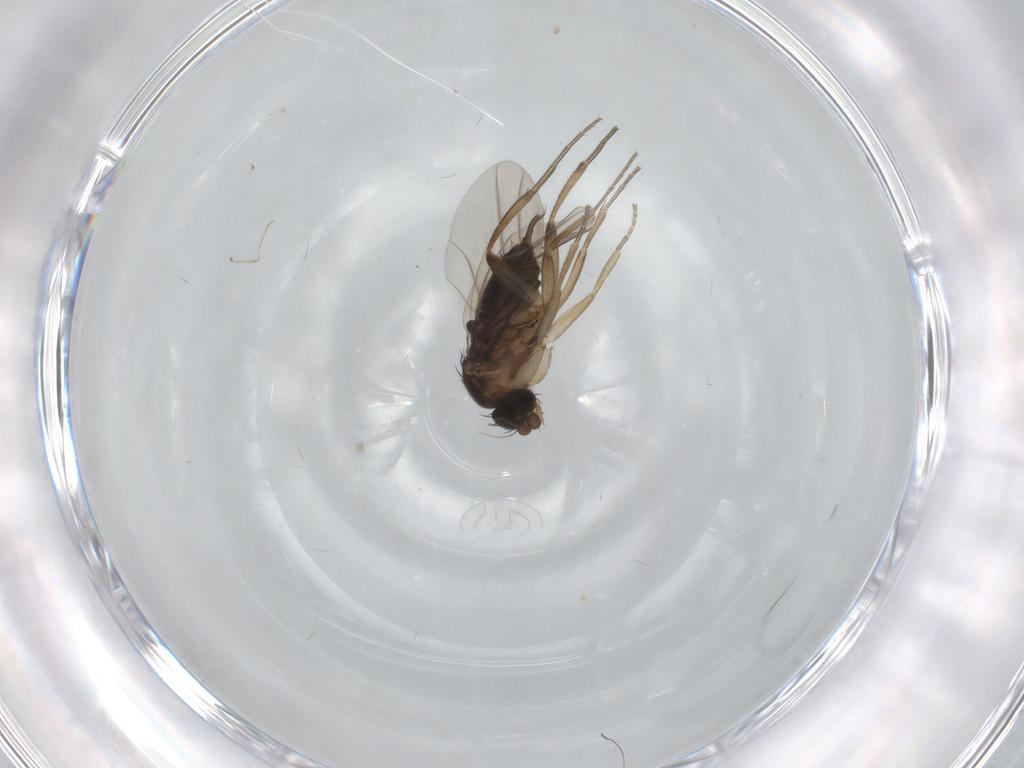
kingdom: Animalia
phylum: Arthropoda
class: Insecta
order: Diptera
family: Phoridae
